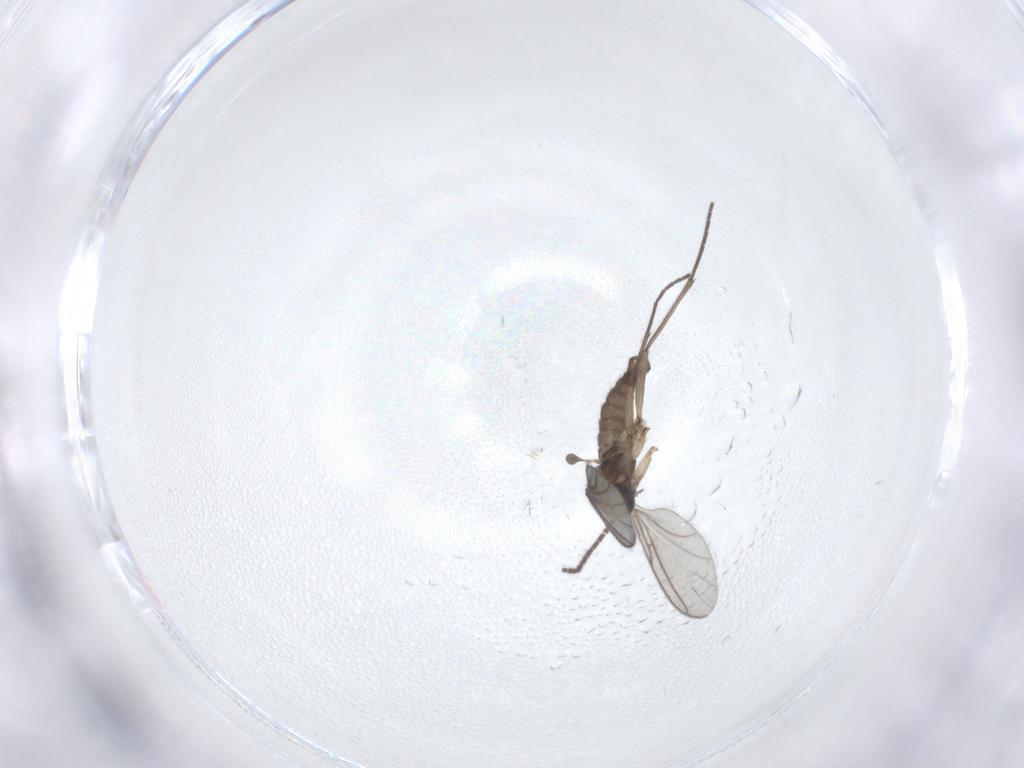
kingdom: Animalia
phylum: Arthropoda
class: Insecta
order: Diptera
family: Sciaridae
